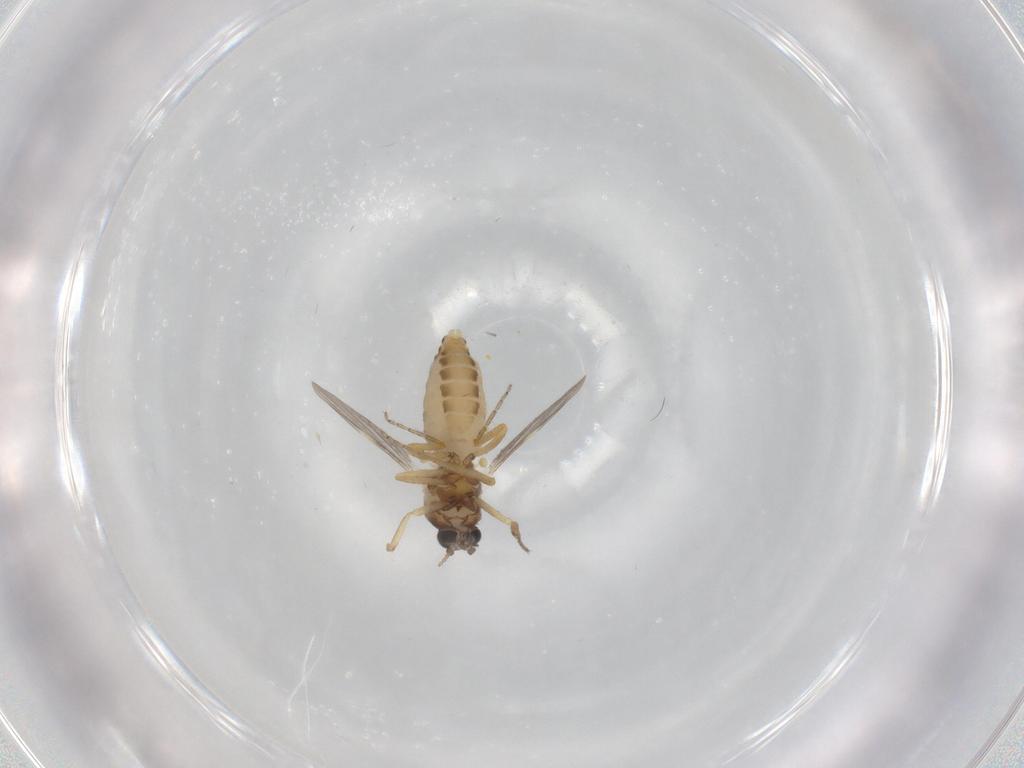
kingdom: Animalia
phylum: Arthropoda
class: Insecta
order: Diptera
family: Ceratopogonidae
